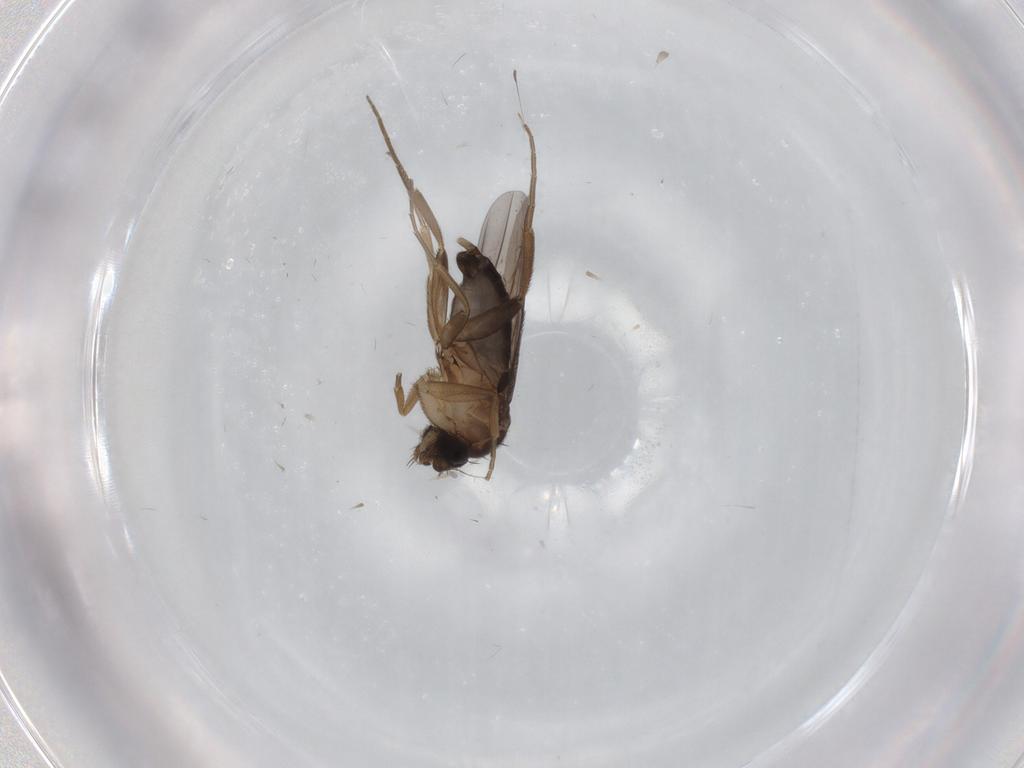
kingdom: Animalia
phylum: Arthropoda
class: Insecta
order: Diptera
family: Phoridae
